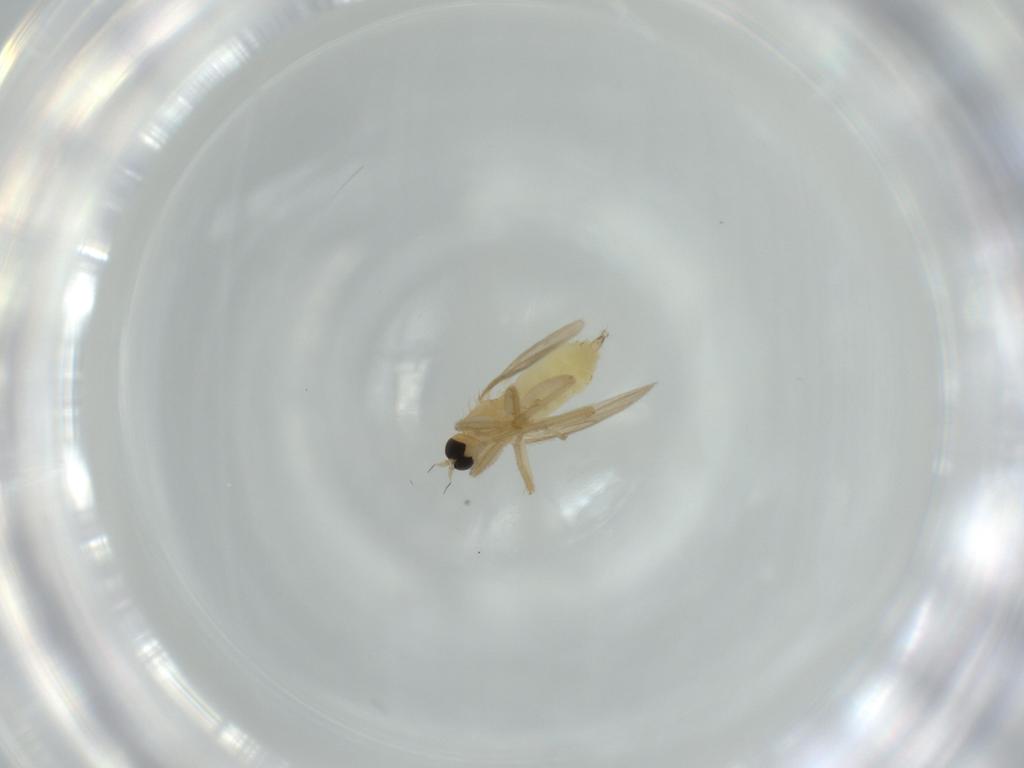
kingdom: Animalia
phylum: Arthropoda
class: Insecta
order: Diptera
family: Hybotidae
